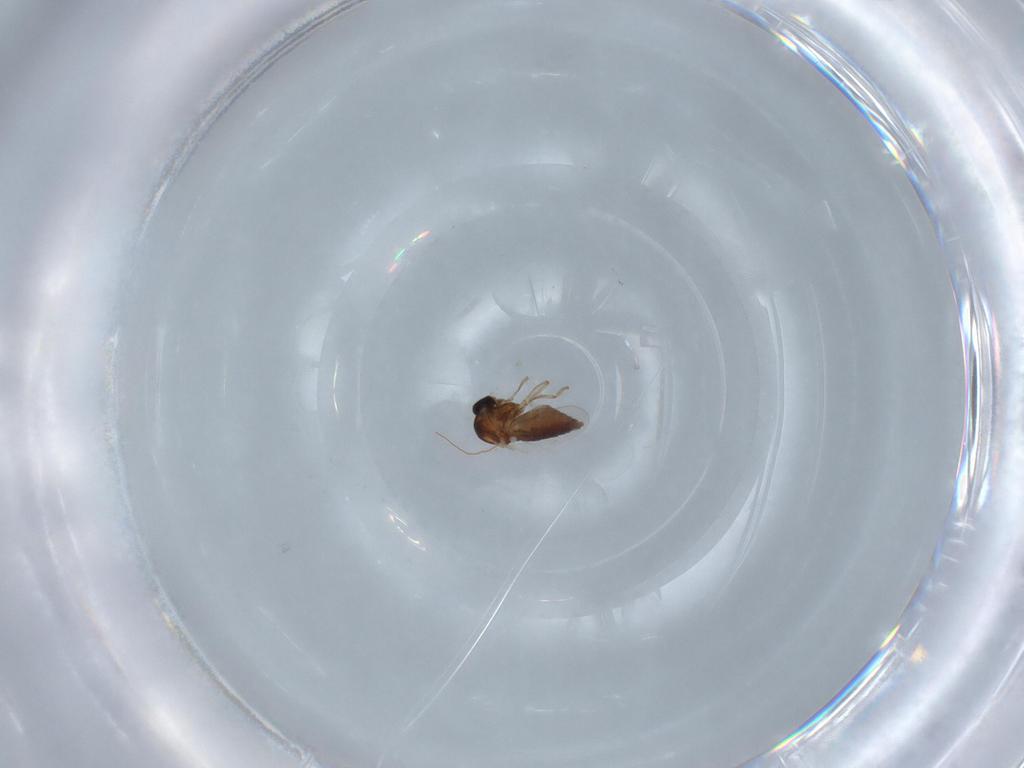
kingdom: Animalia
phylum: Arthropoda
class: Insecta
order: Diptera
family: Ceratopogonidae
